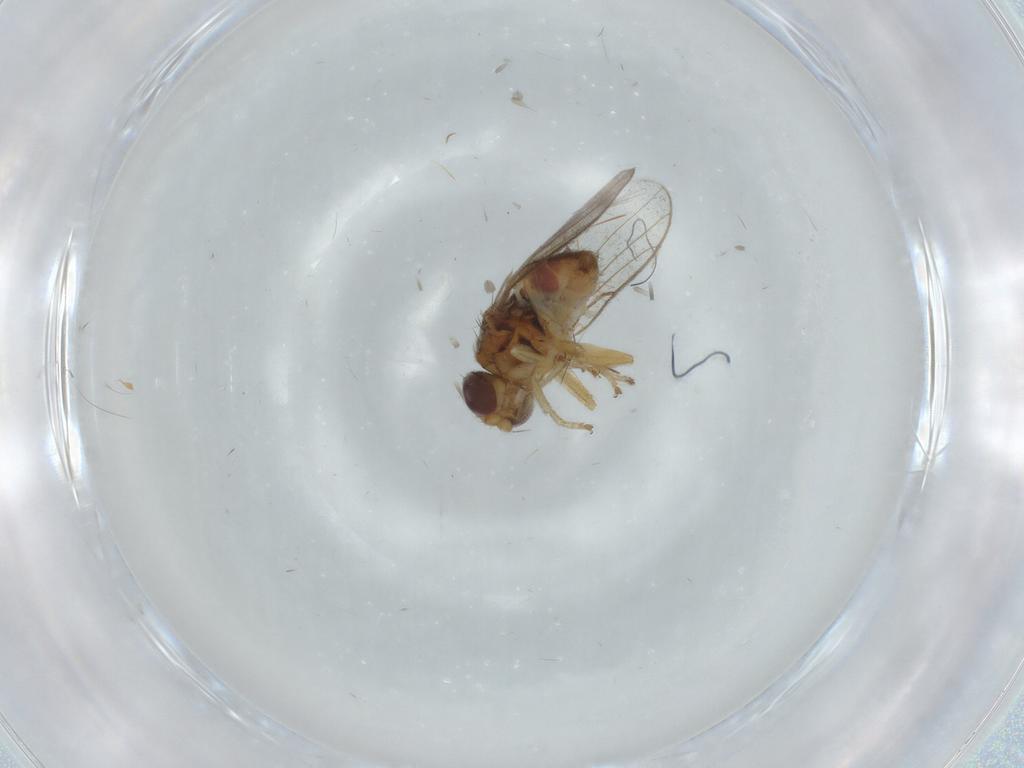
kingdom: Animalia
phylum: Arthropoda
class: Insecta
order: Diptera
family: Chloropidae
